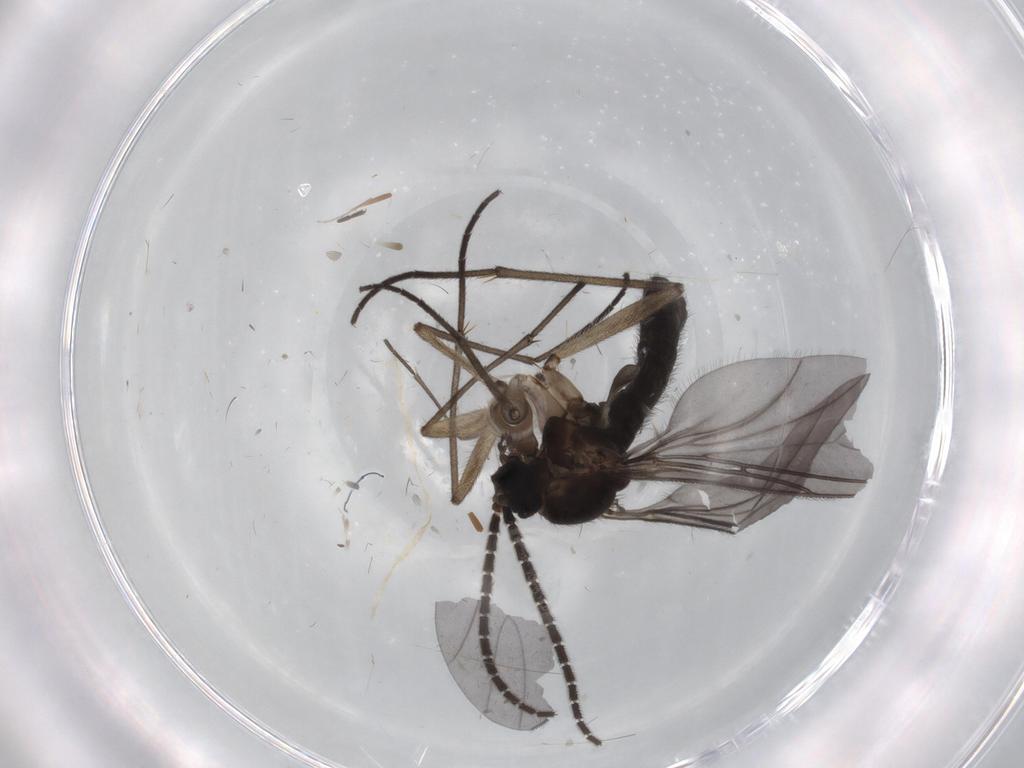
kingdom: Animalia
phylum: Arthropoda
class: Insecta
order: Diptera
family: Sciaridae
